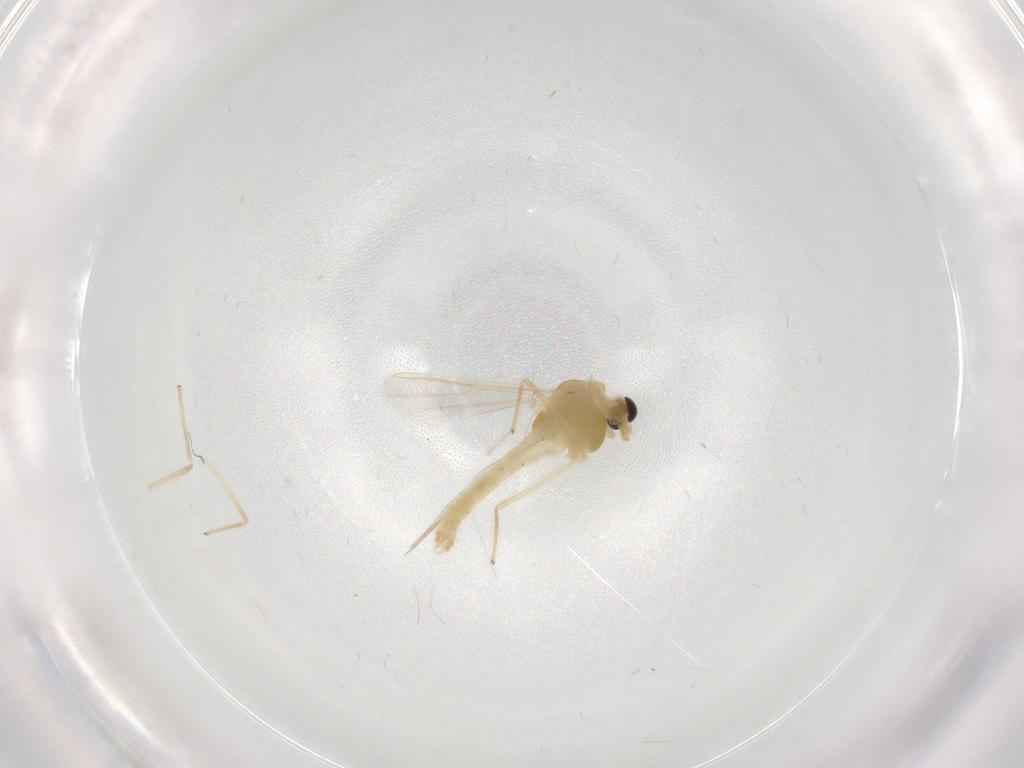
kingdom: Animalia
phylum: Arthropoda
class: Insecta
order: Diptera
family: Chironomidae
